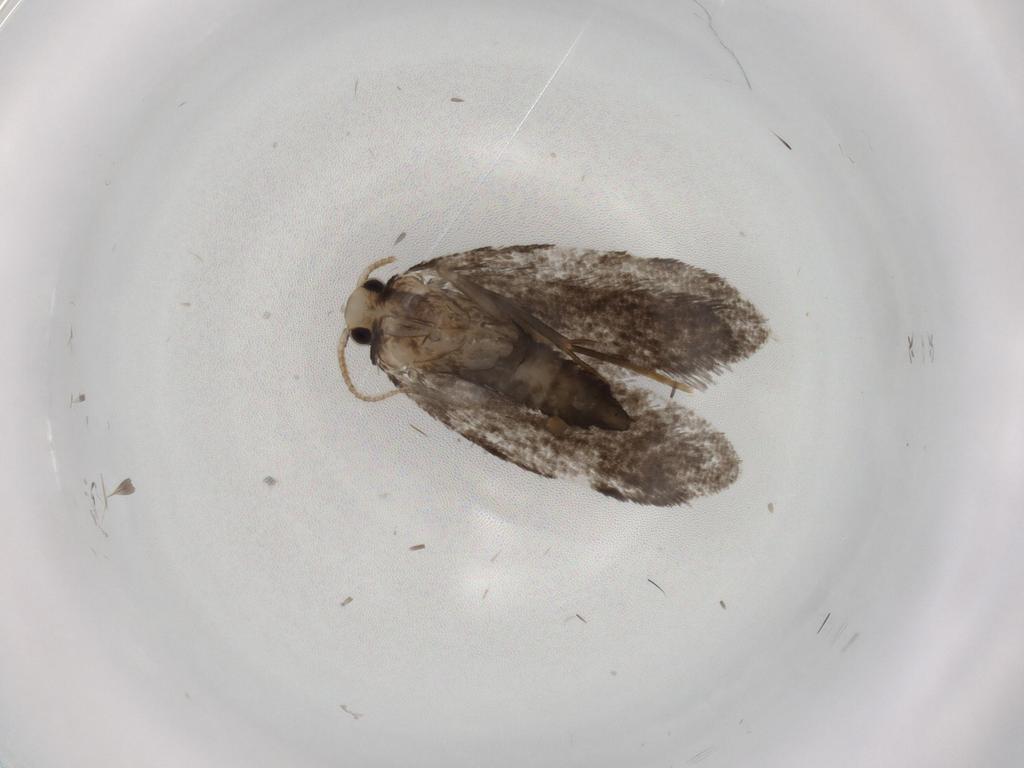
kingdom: Animalia
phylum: Arthropoda
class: Insecta
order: Lepidoptera
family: Psychidae
